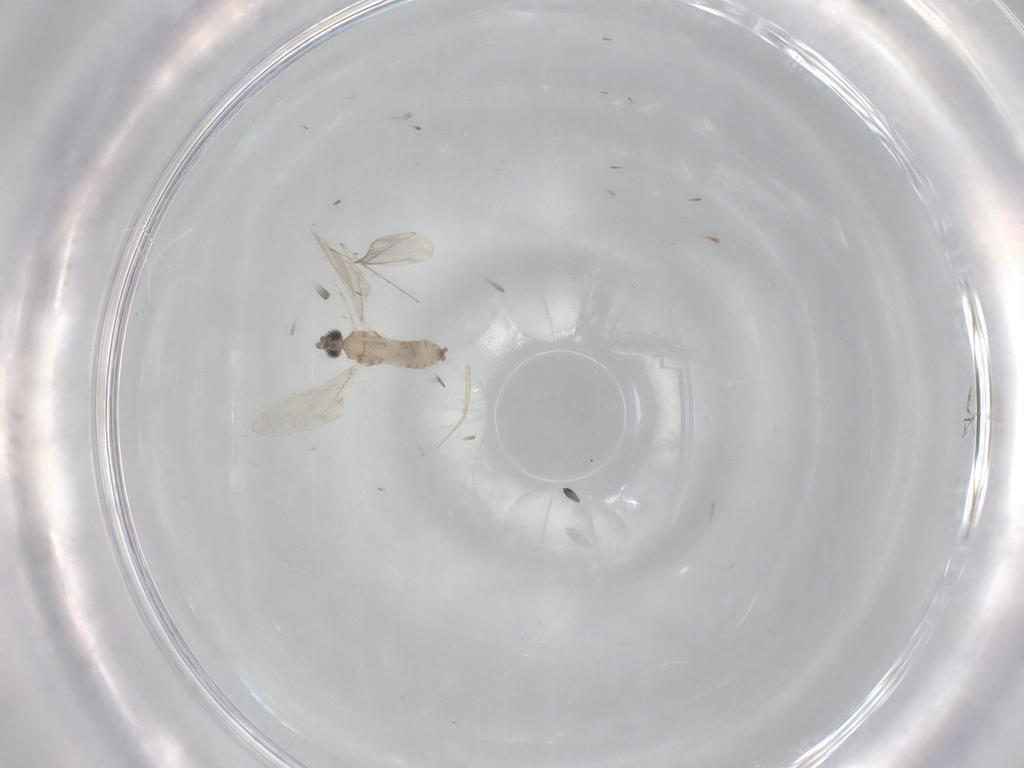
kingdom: Animalia
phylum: Arthropoda
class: Insecta
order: Diptera
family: Cecidomyiidae
